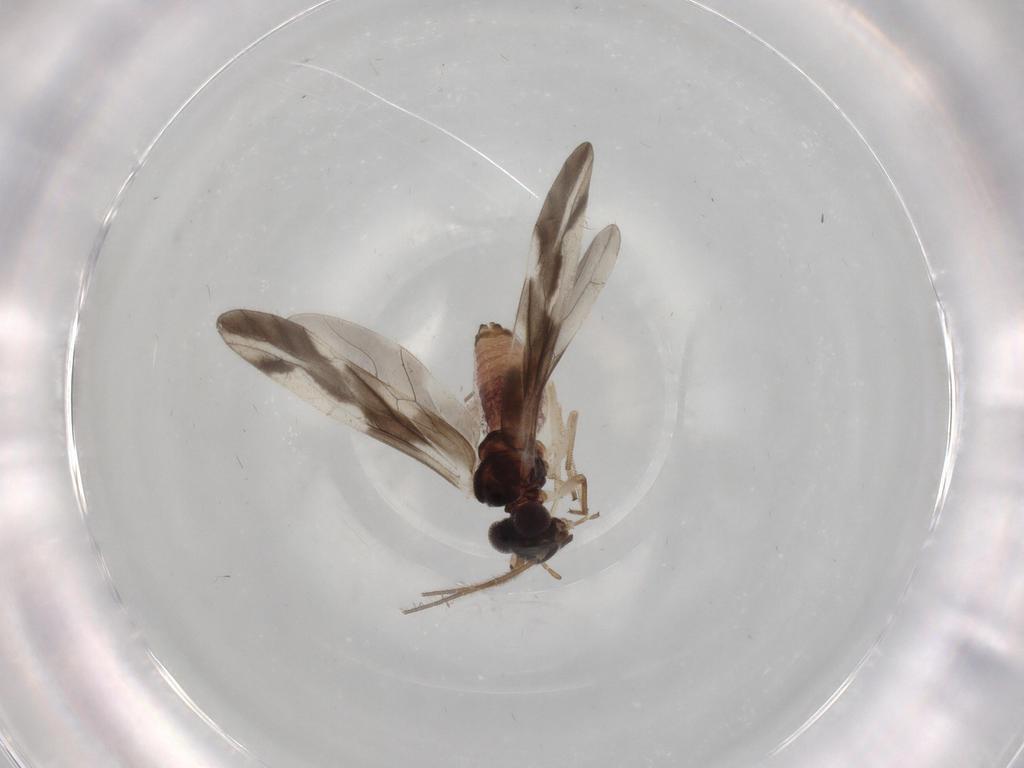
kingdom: Animalia
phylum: Arthropoda
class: Insecta
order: Psocodea
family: Caeciliusidae
